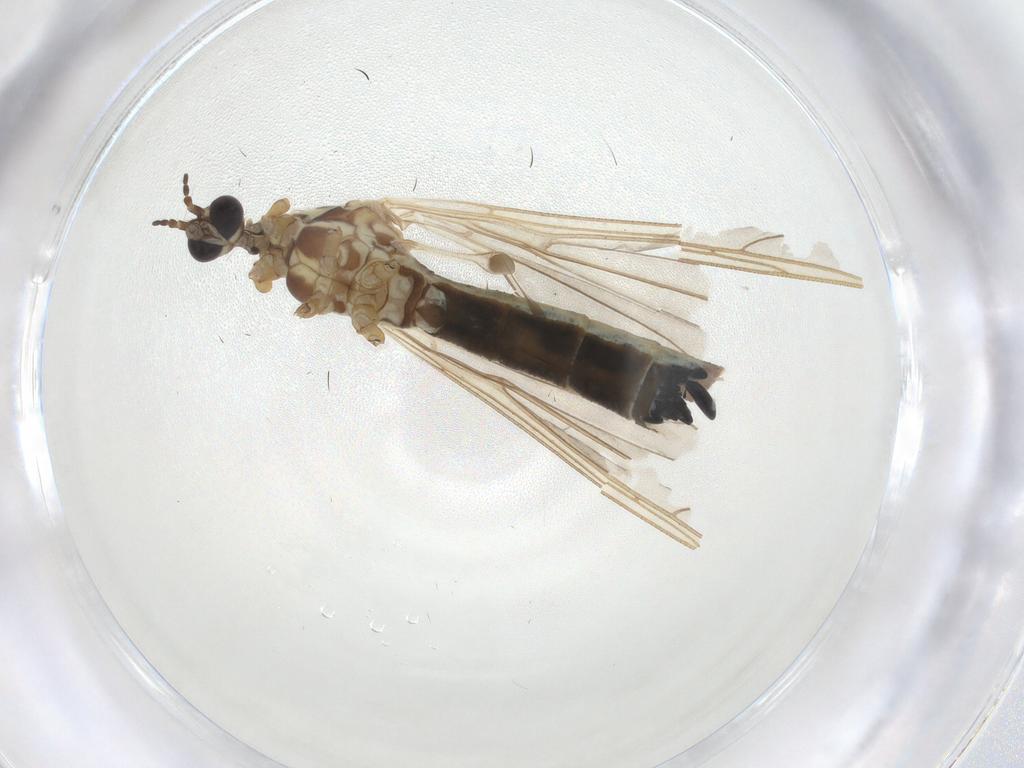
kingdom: Animalia
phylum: Arthropoda
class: Insecta
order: Diptera
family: Limoniidae
